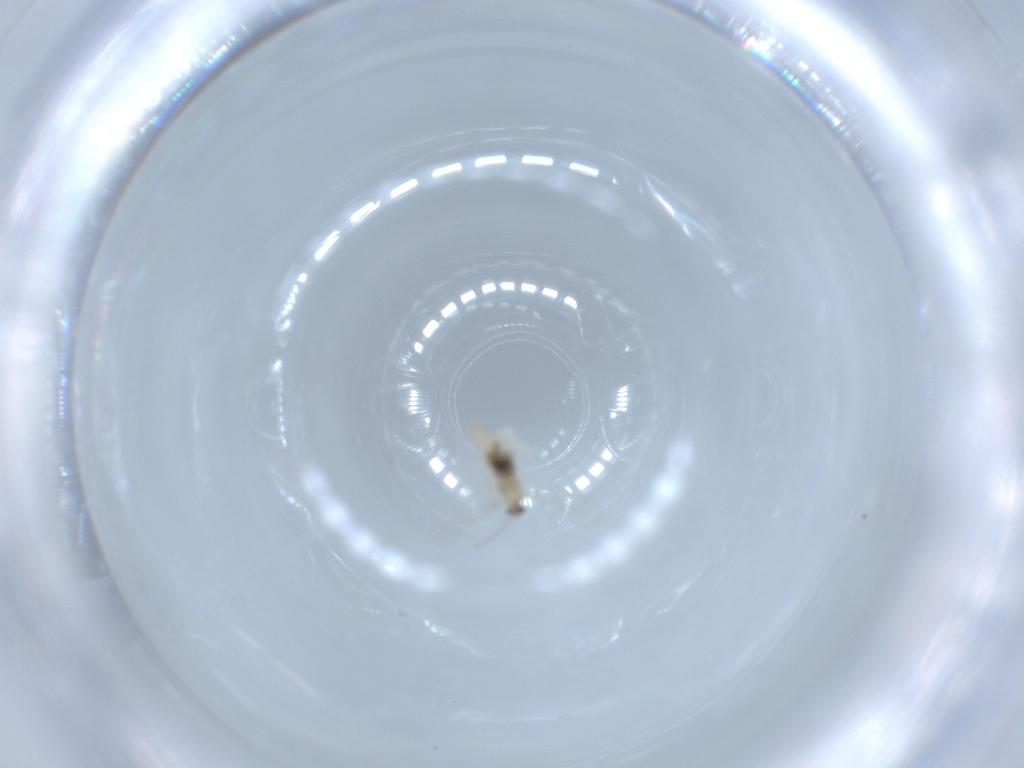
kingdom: Animalia
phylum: Arthropoda
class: Insecta
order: Diptera
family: Cecidomyiidae
